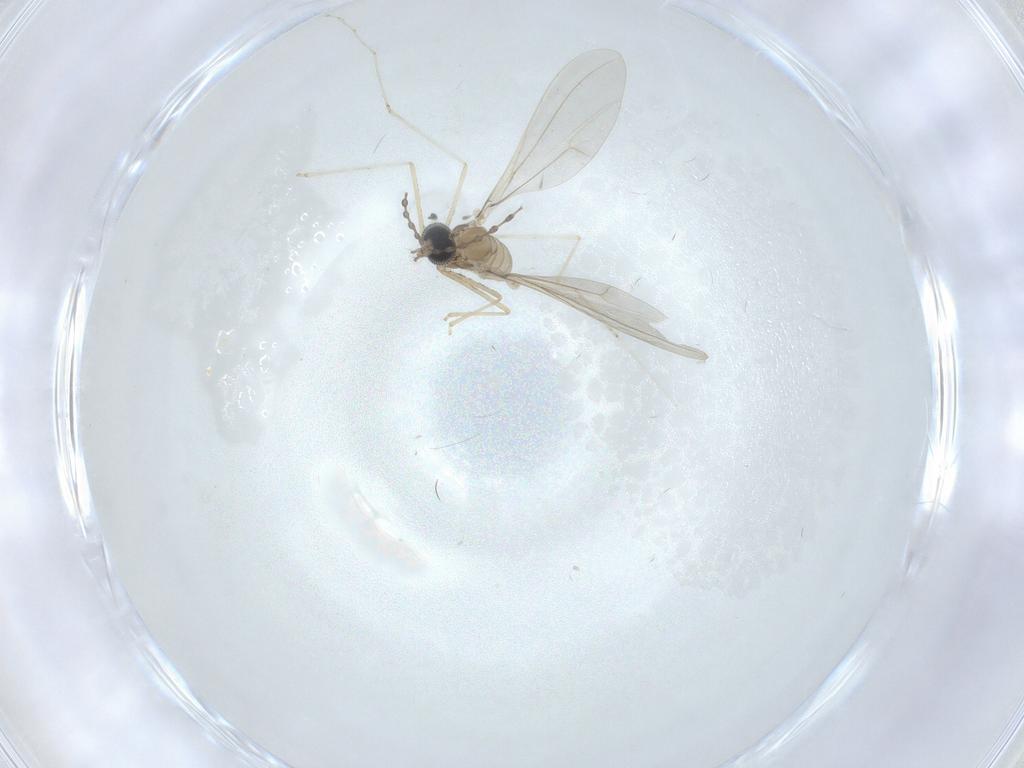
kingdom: Animalia
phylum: Arthropoda
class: Insecta
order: Diptera
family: Cecidomyiidae
